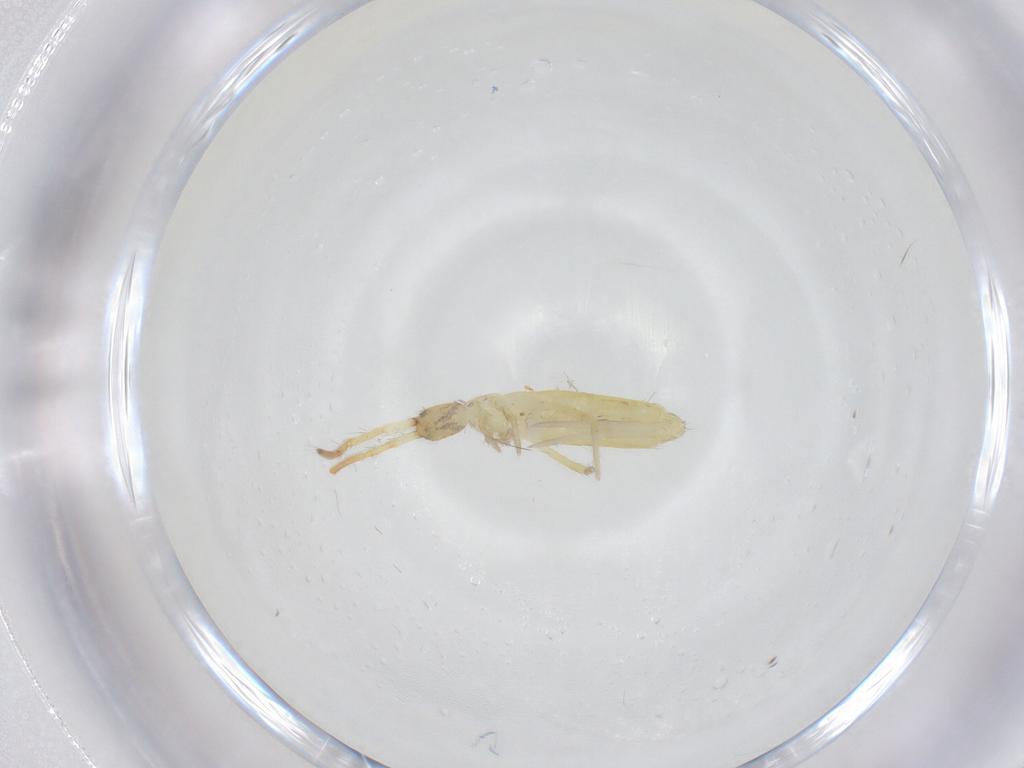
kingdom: Animalia
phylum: Arthropoda
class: Collembola
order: Entomobryomorpha
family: Entomobryidae
